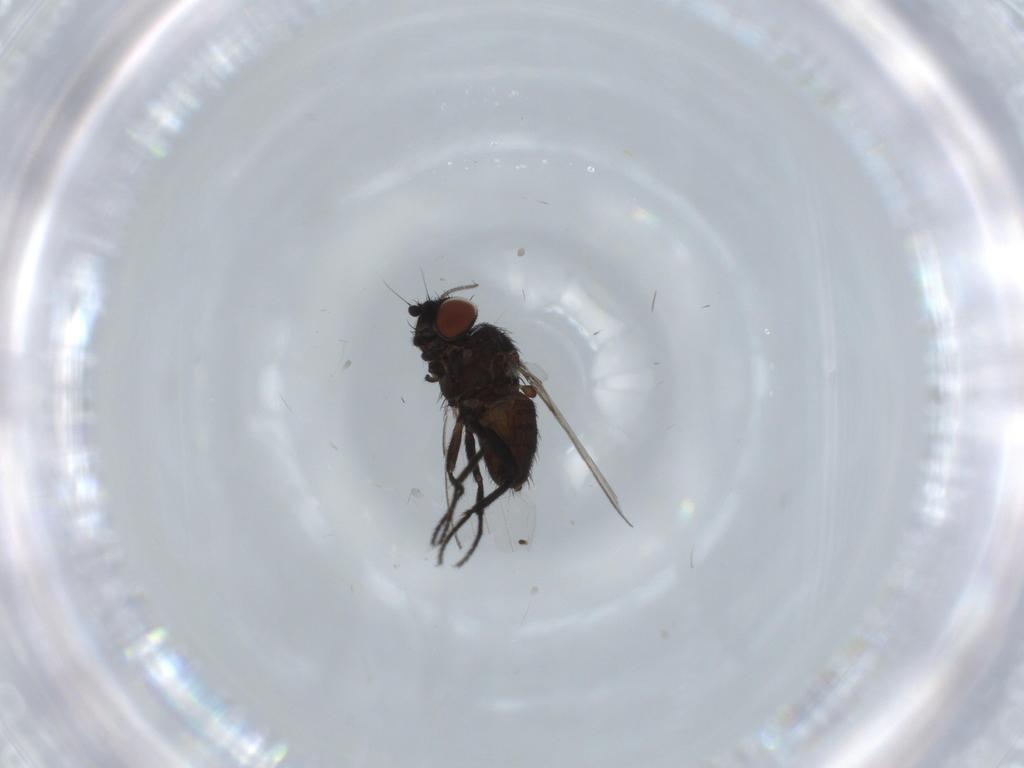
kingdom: Animalia
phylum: Arthropoda
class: Insecta
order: Diptera
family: Milichiidae
